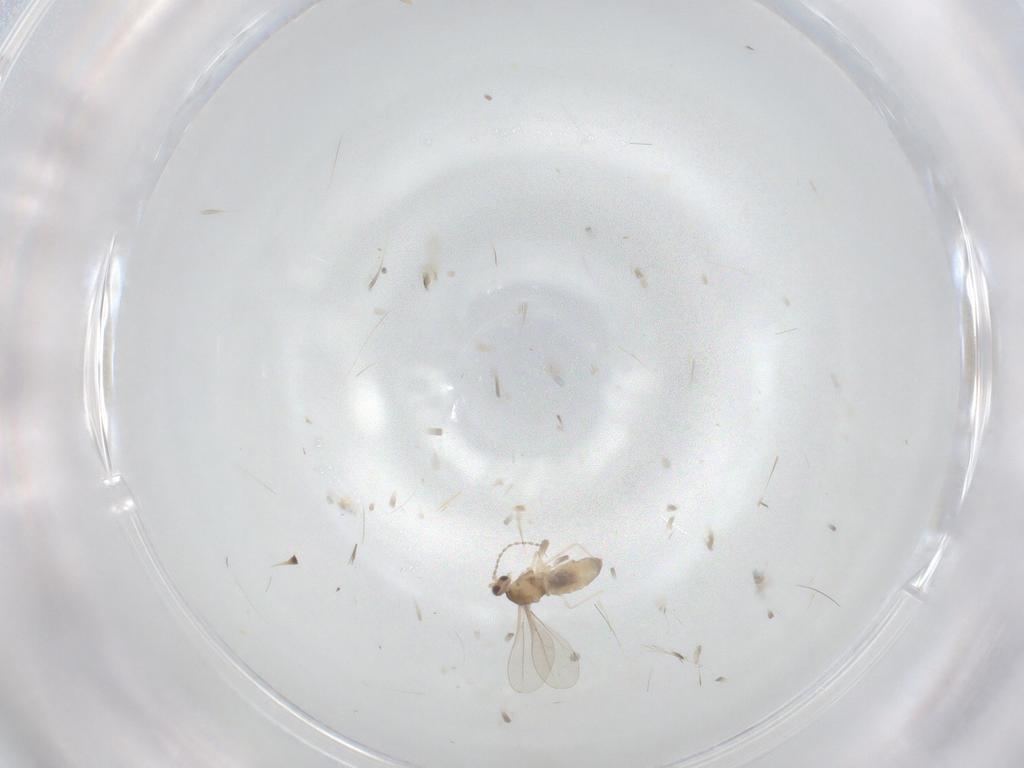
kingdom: Animalia
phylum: Arthropoda
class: Insecta
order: Diptera
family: Cecidomyiidae
